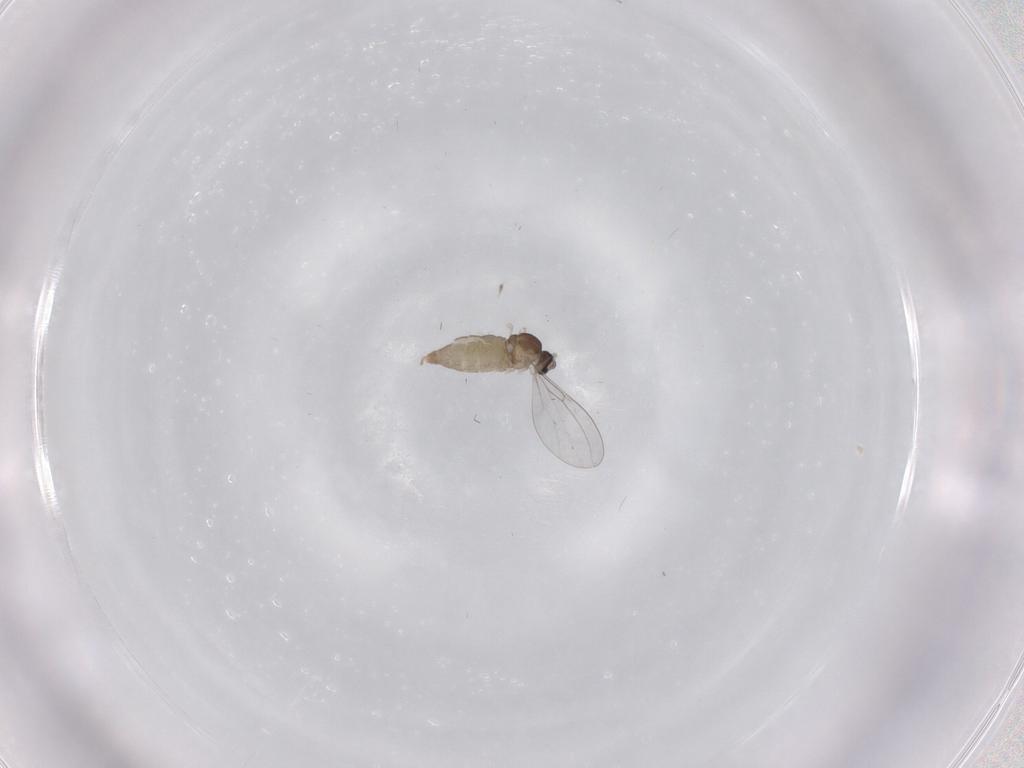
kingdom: Animalia
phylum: Arthropoda
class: Insecta
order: Diptera
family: Cecidomyiidae
